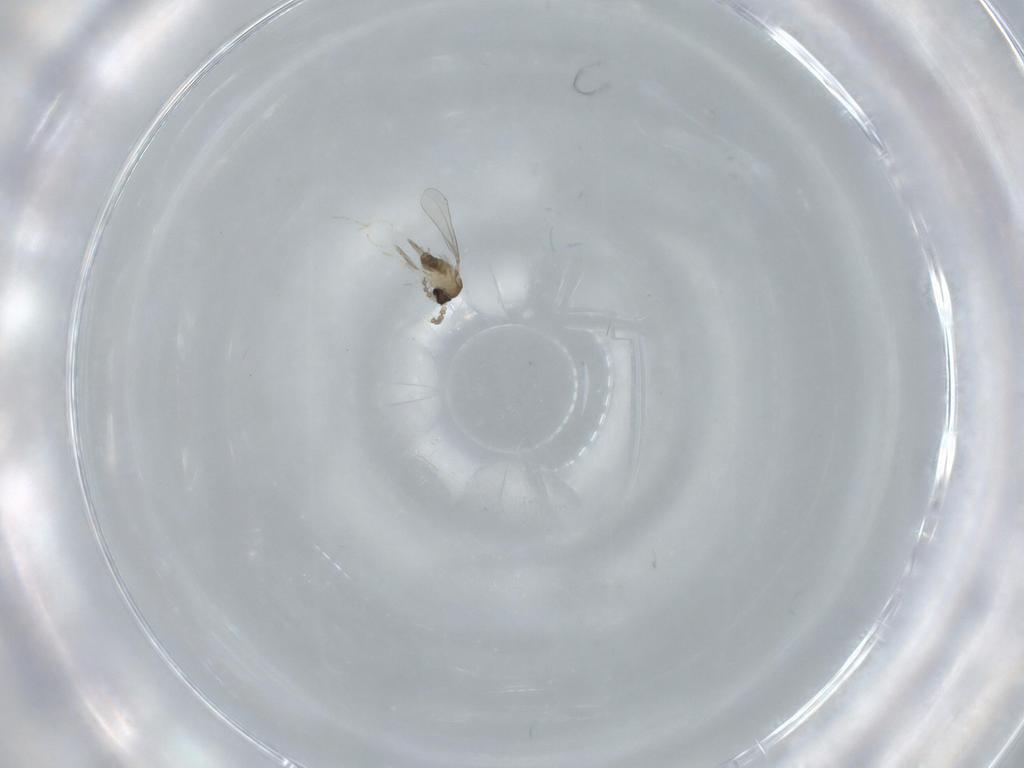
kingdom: Animalia
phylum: Arthropoda
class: Insecta
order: Diptera
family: Cecidomyiidae
